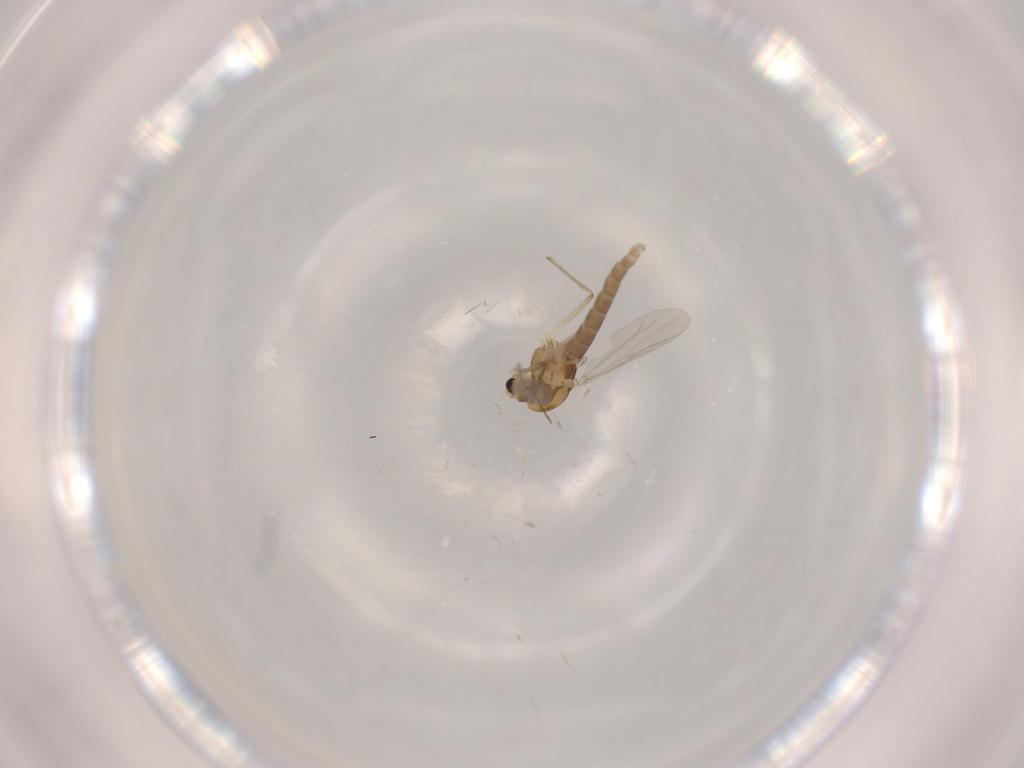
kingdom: Animalia
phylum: Arthropoda
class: Insecta
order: Diptera
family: Chironomidae
